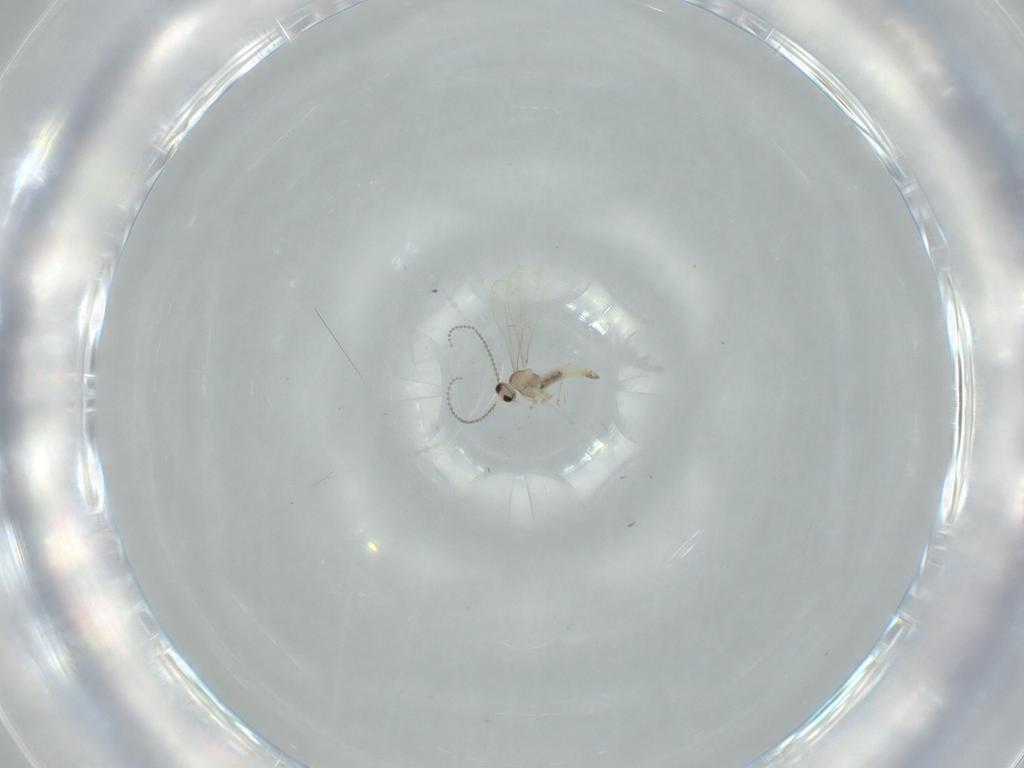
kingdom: Animalia
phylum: Arthropoda
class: Insecta
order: Diptera
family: Cecidomyiidae
